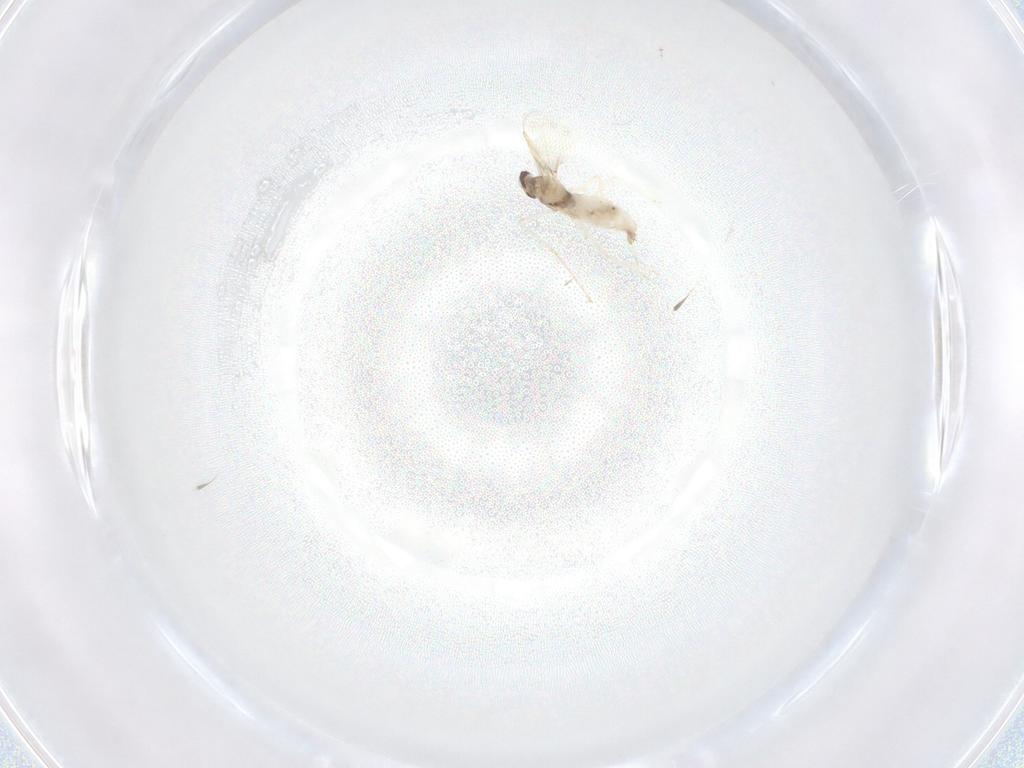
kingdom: Animalia
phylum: Arthropoda
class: Insecta
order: Diptera
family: Cecidomyiidae
